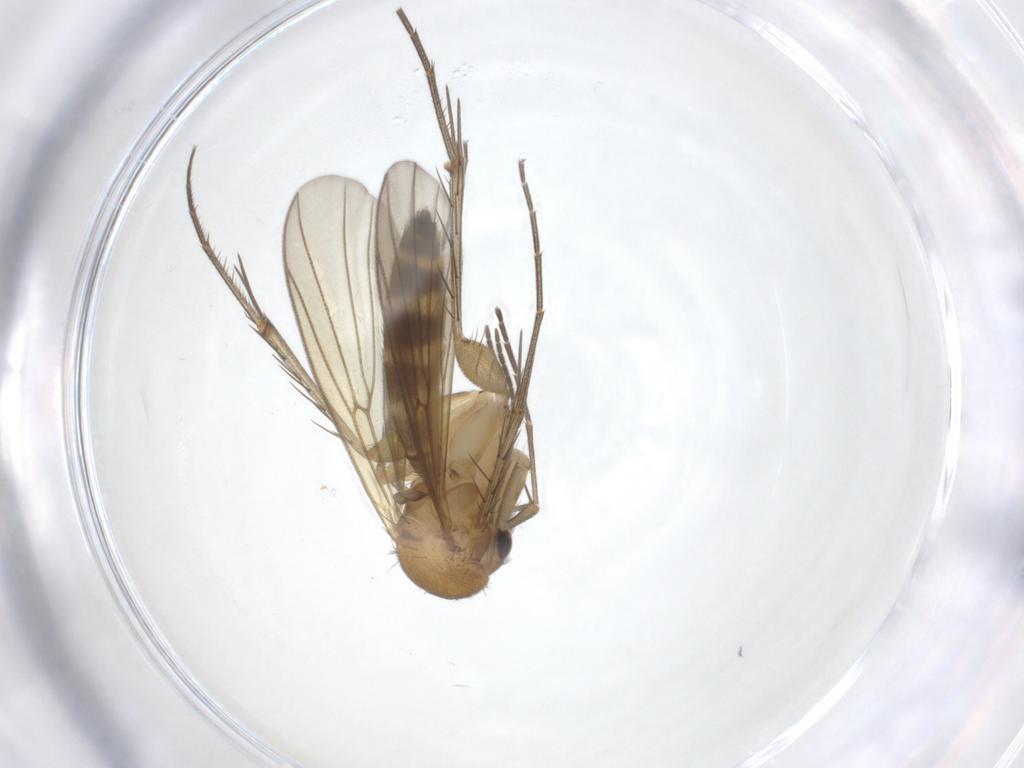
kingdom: Animalia
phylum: Arthropoda
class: Insecta
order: Diptera
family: Mycetophilidae
